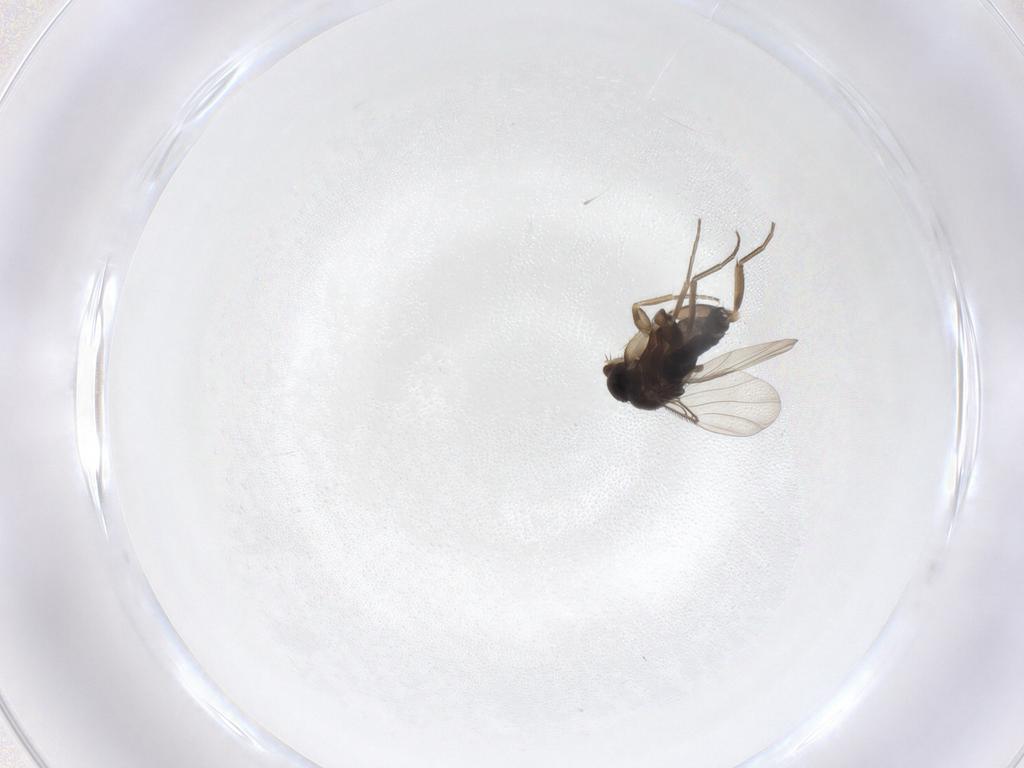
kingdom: Animalia
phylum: Arthropoda
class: Insecta
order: Diptera
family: Phoridae
